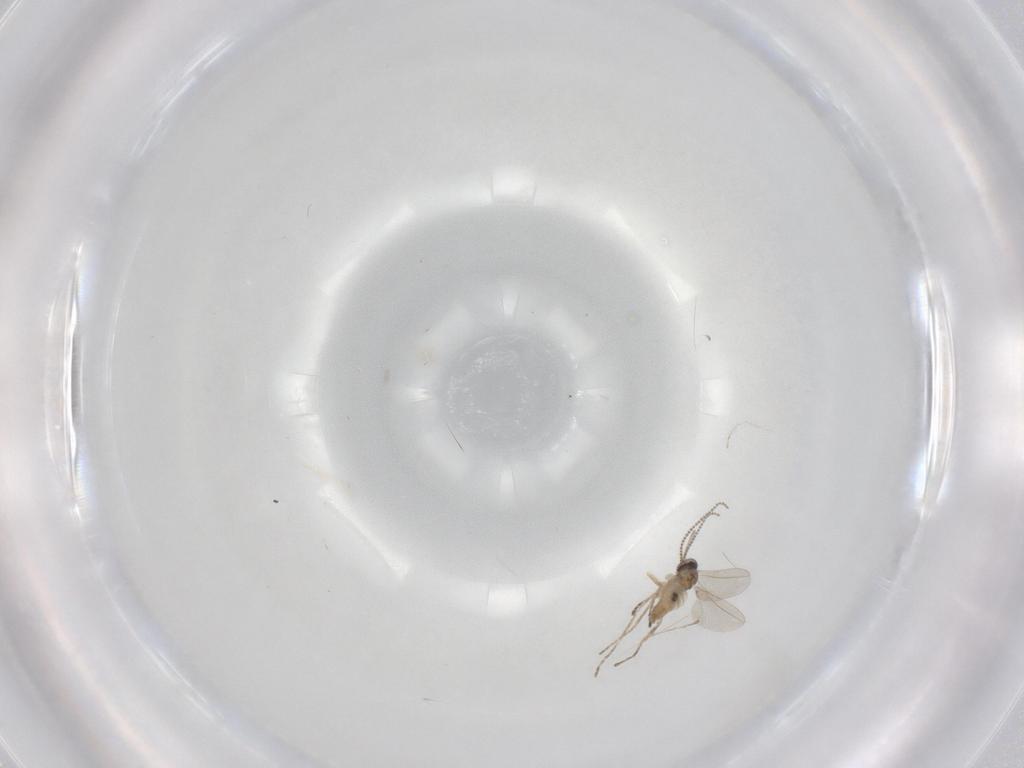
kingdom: Animalia
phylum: Arthropoda
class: Insecta
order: Diptera
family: Cecidomyiidae
